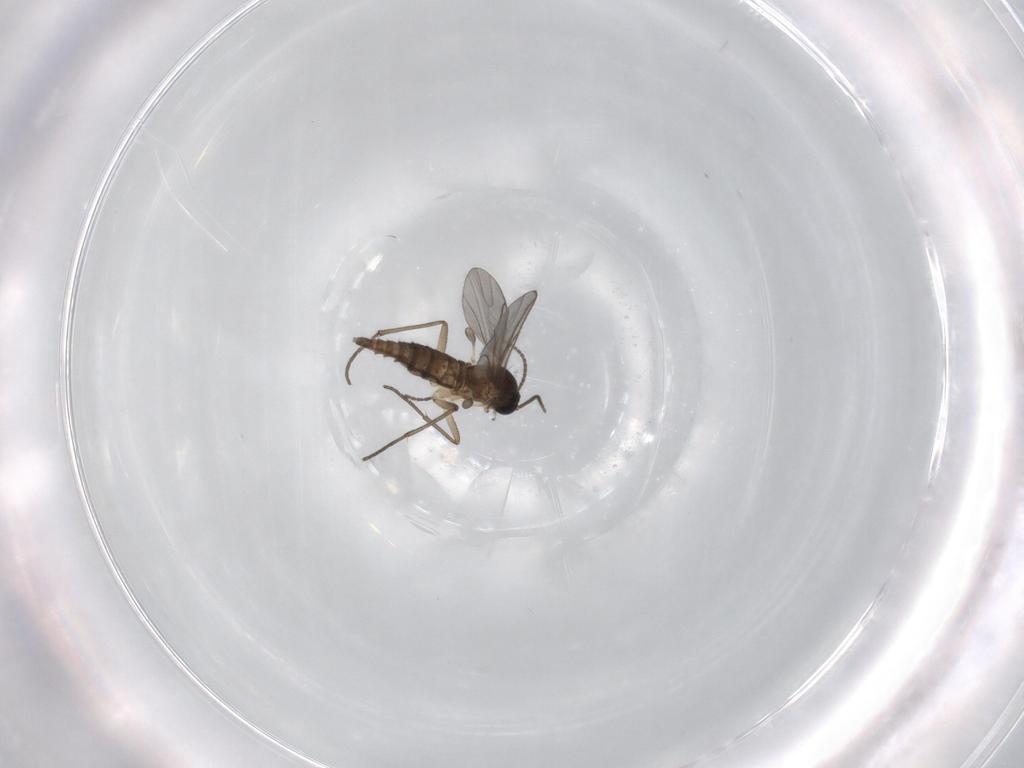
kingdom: Animalia
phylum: Arthropoda
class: Insecta
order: Diptera
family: Sciaridae
